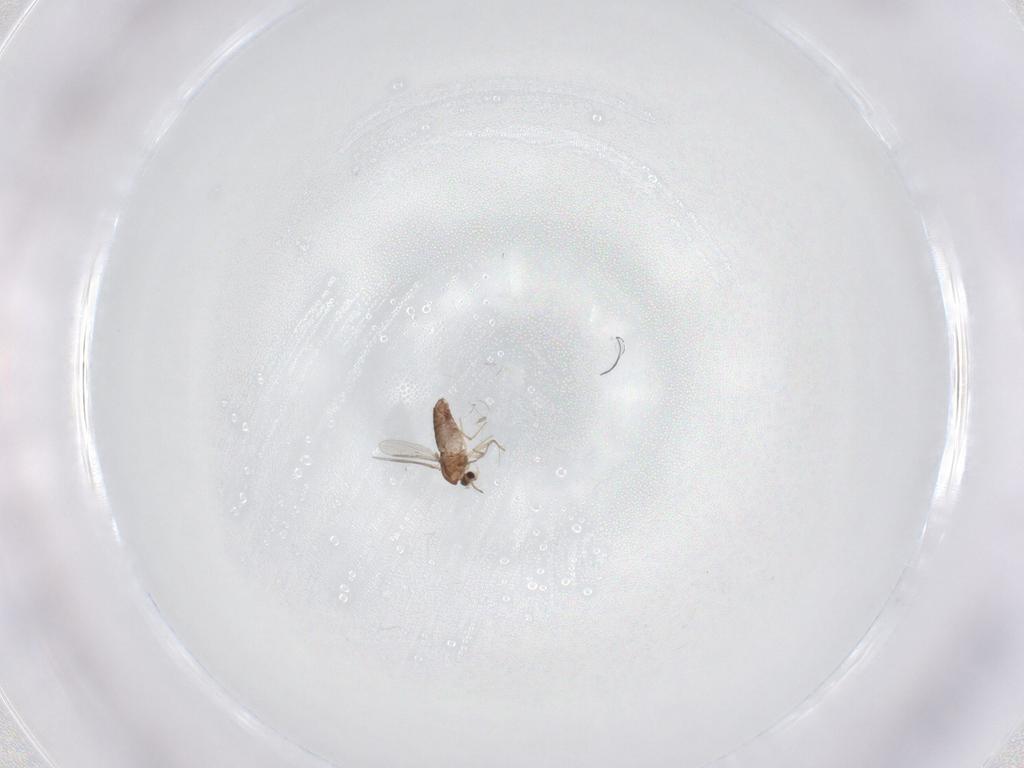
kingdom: Animalia
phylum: Arthropoda
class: Insecta
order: Diptera
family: Chironomidae
